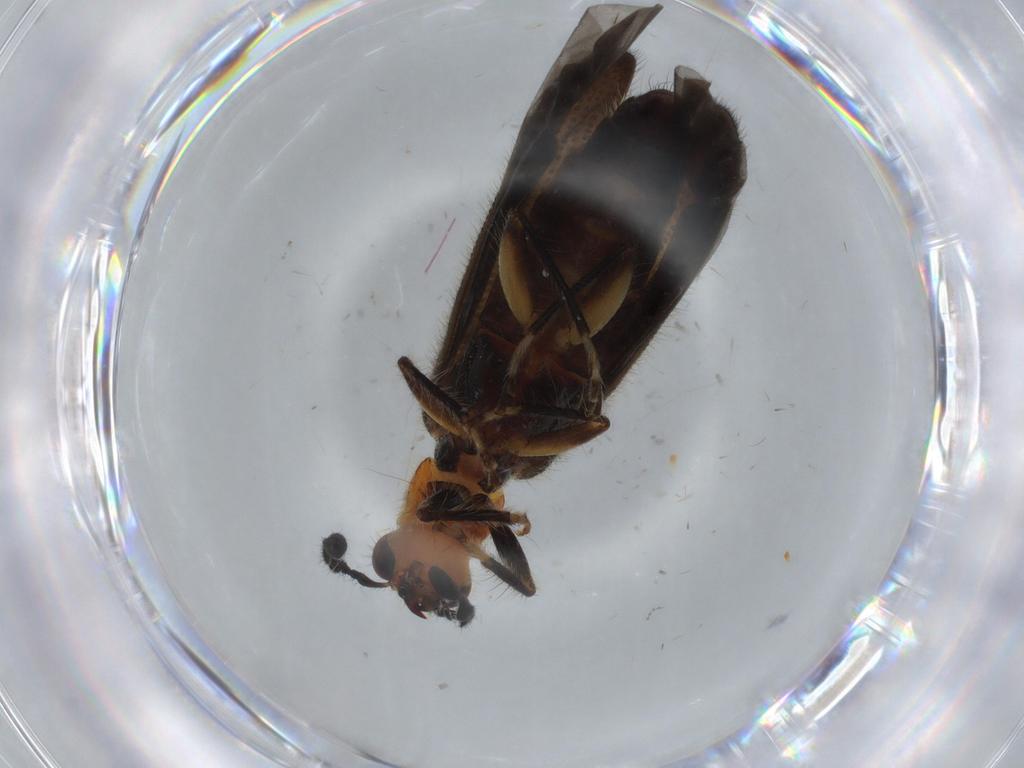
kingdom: Animalia
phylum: Arthropoda
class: Insecta
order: Coleoptera
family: Cleridae
